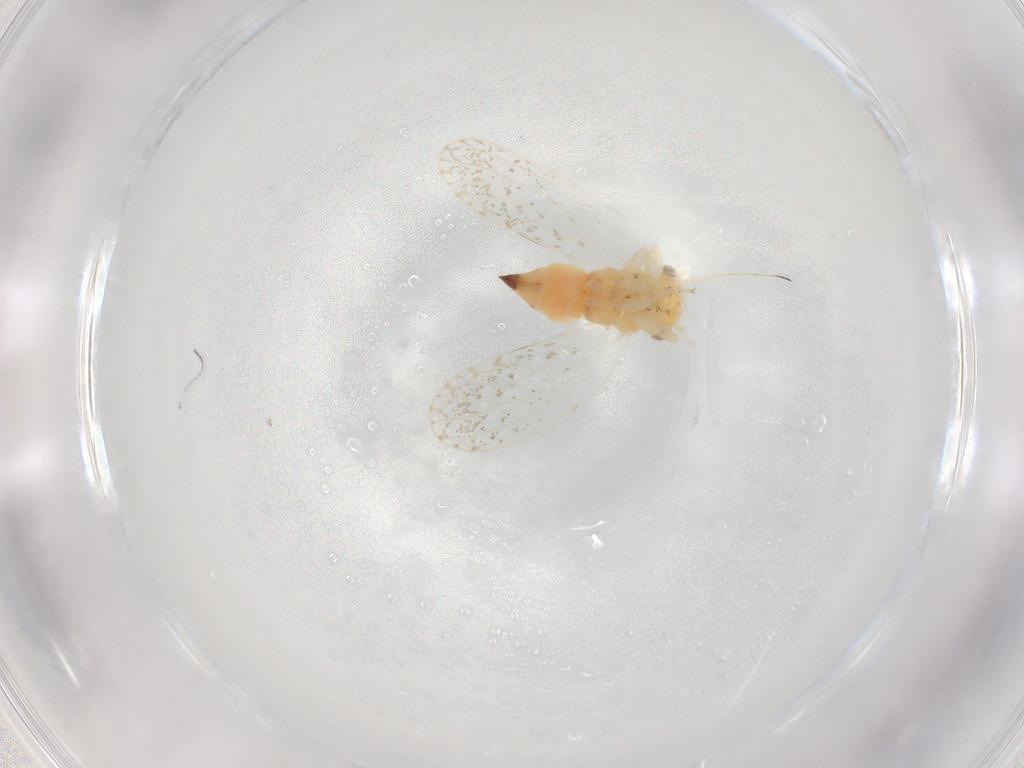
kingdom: Animalia
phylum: Arthropoda
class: Insecta
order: Hemiptera
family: Psyllidae
